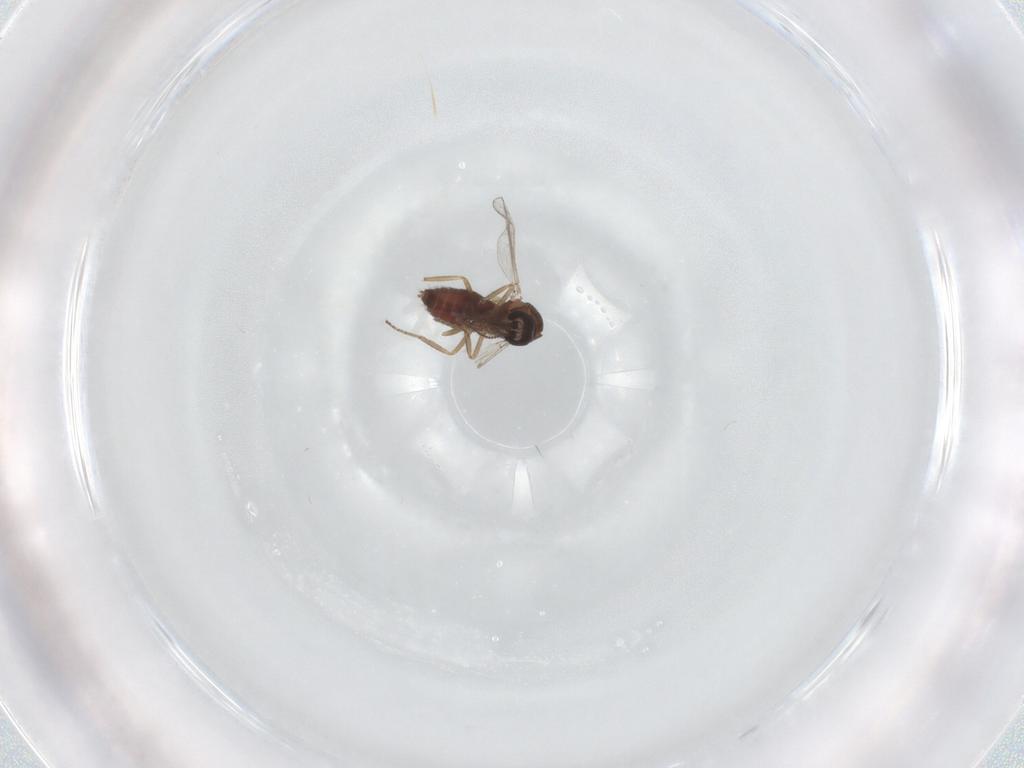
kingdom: Animalia
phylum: Arthropoda
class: Insecta
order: Diptera
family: Ceratopogonidae
